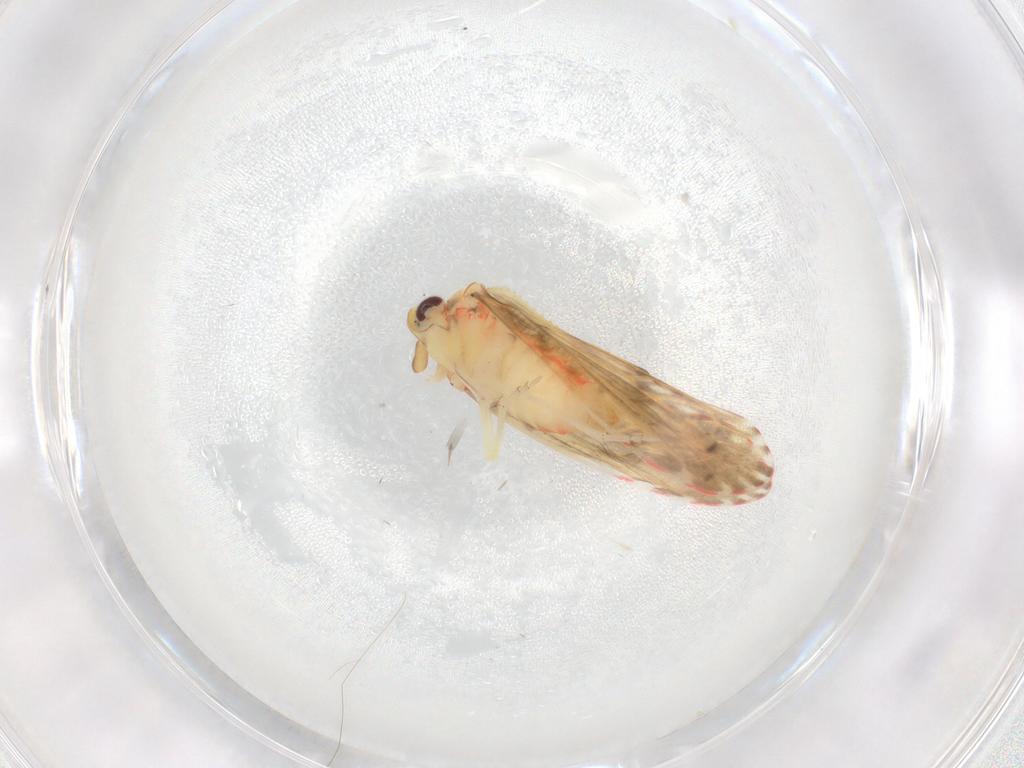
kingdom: Animalia
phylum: Arthropoda
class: Insecta
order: Hemiptera
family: Derbidae
